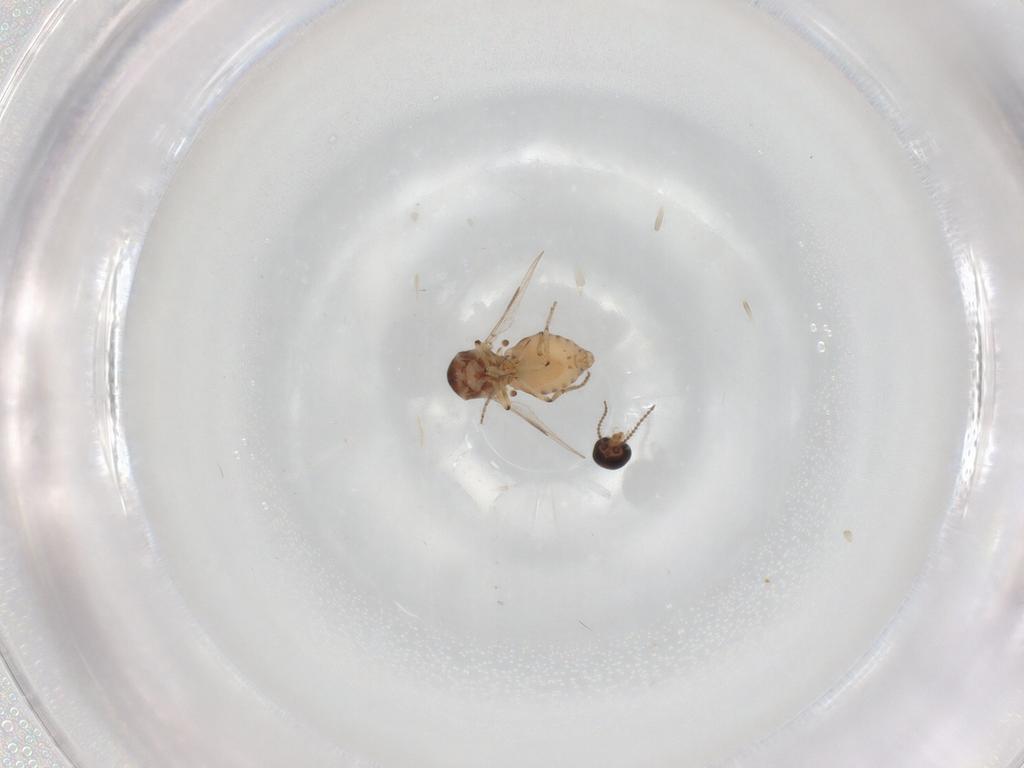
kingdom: Animalia
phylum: Arthropoda
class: Insecta
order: Diptera
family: Ceratopogonidae
